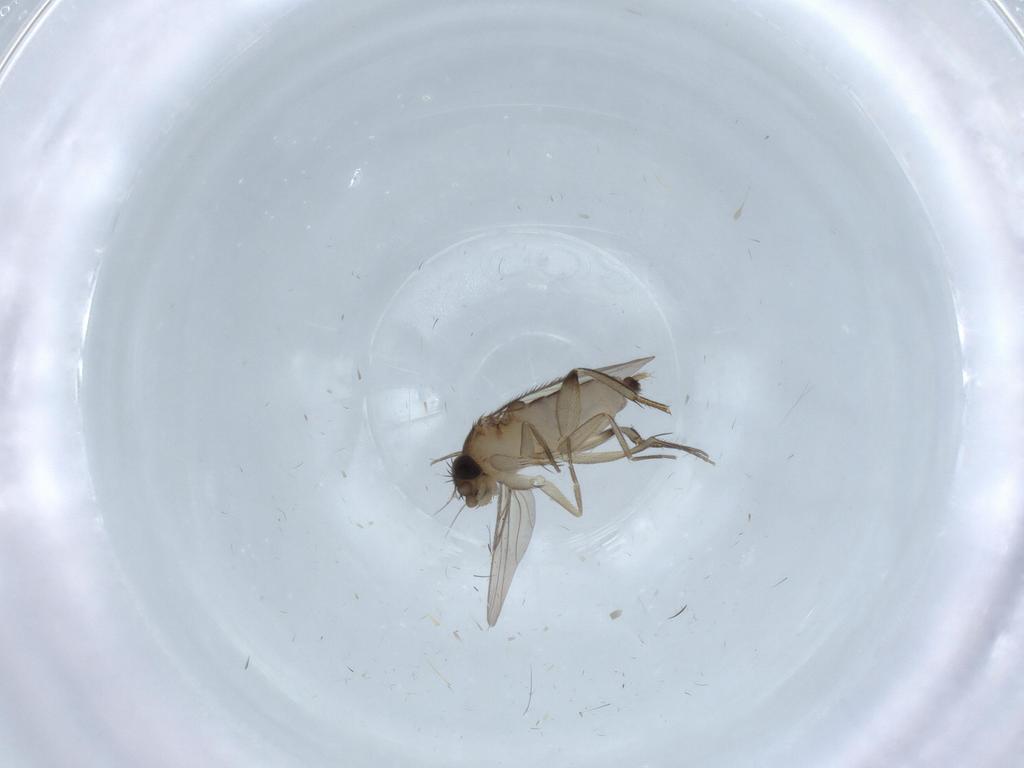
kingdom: Animalia
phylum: Arthropoda
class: Insecta
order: Diptera
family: Phoridae
